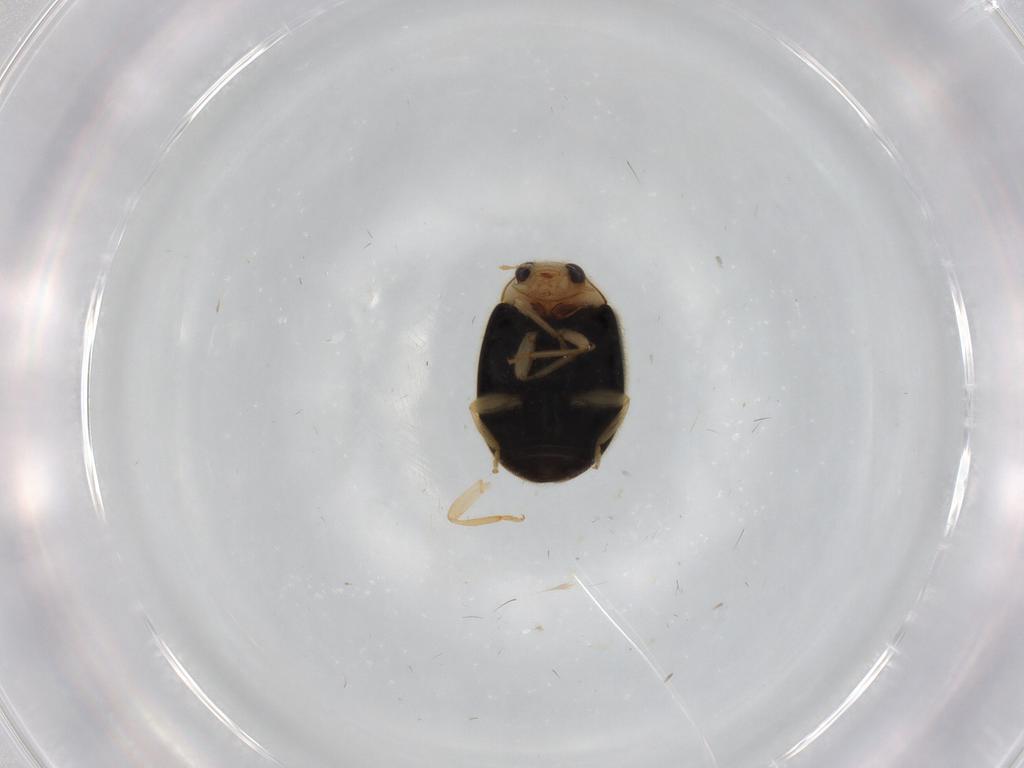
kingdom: Animalia
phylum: Arthropoda
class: Insecta
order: Coleoptera
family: Coccinellidae
